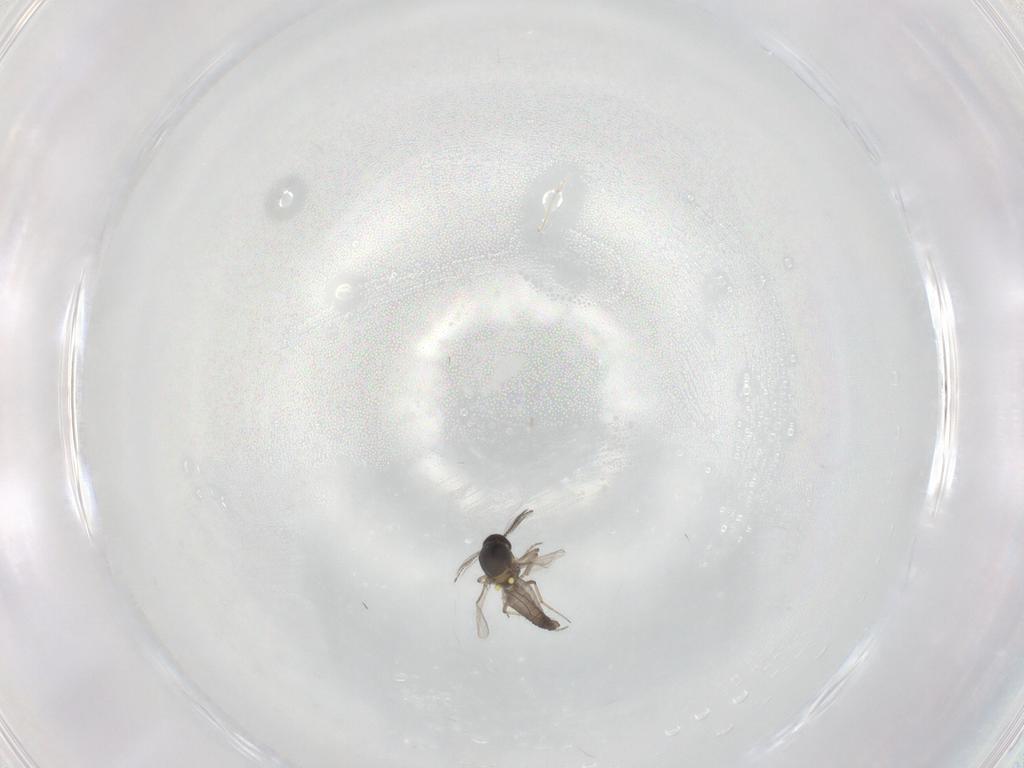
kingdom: Animalia
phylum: Arthropoda
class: Insecta
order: Diptera
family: Ceratopogonidae
